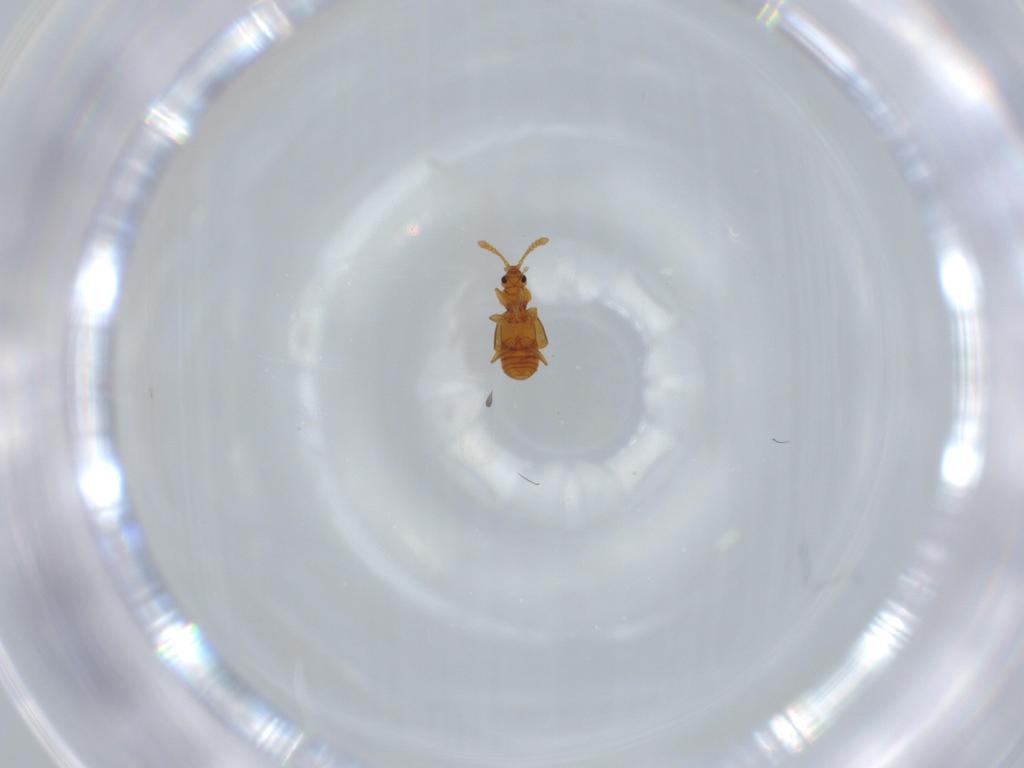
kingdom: Animalia
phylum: Arthropoda
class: Insecta
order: Coleoptera
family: Staphylinidae
